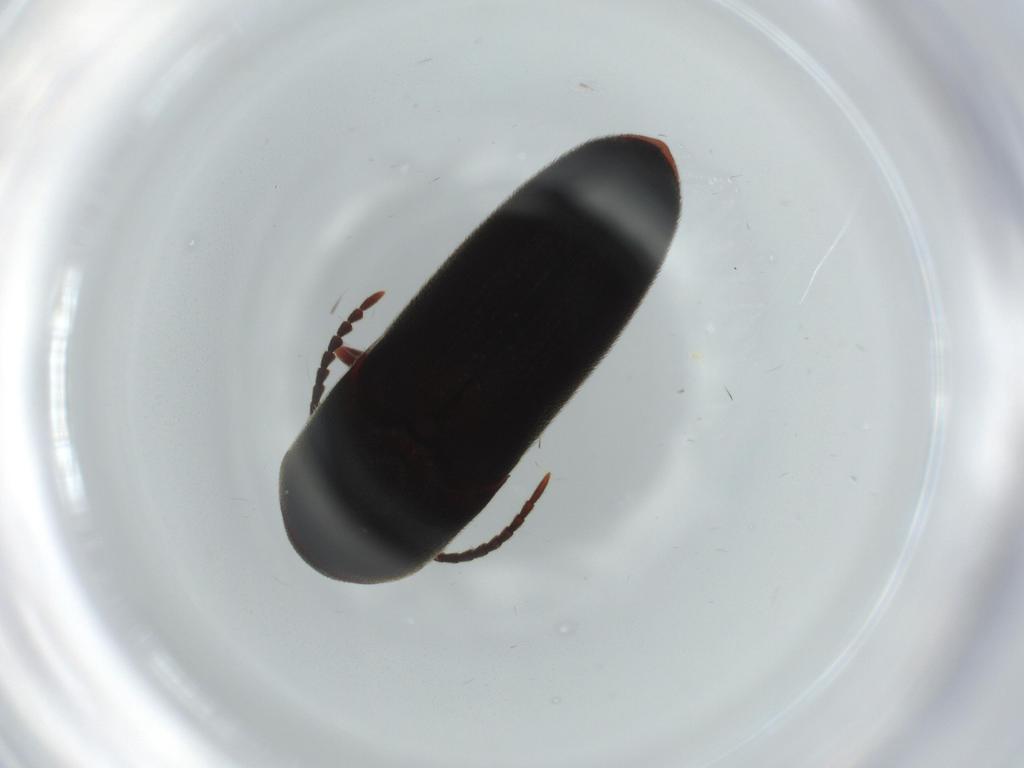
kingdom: Animalia
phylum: Arthropoda
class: Insecta
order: Coleoptera
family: Eucnemidae
